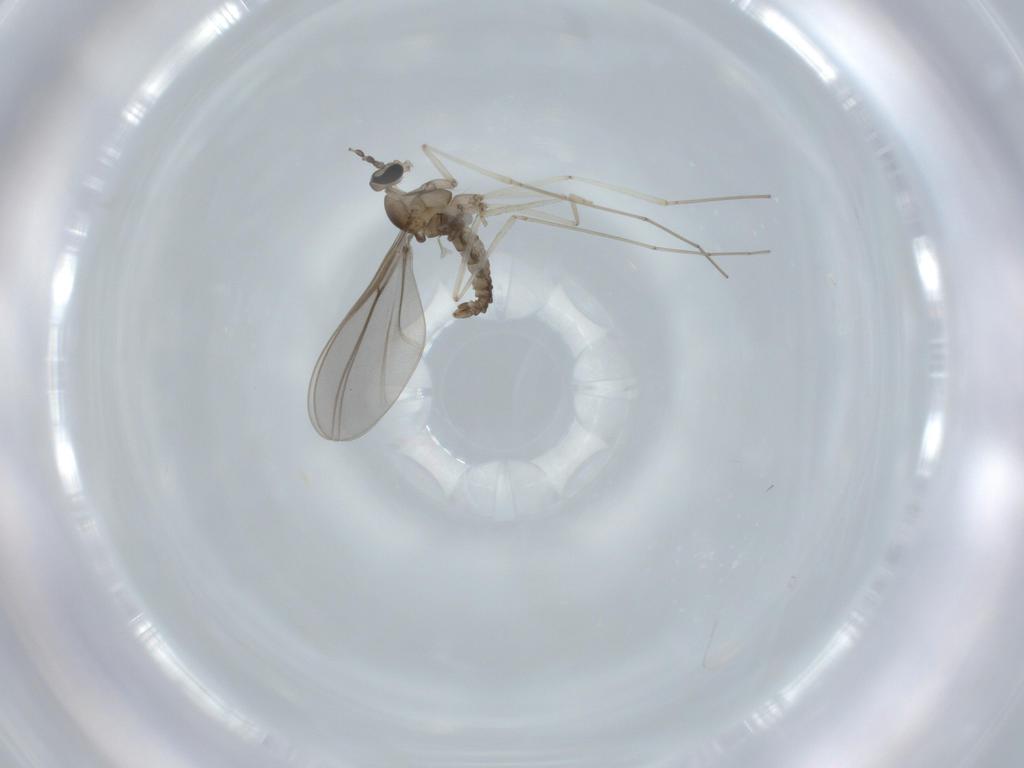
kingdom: Animalia
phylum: Arthropoda
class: Insecta
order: Diptera
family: Cecidomyiidae
